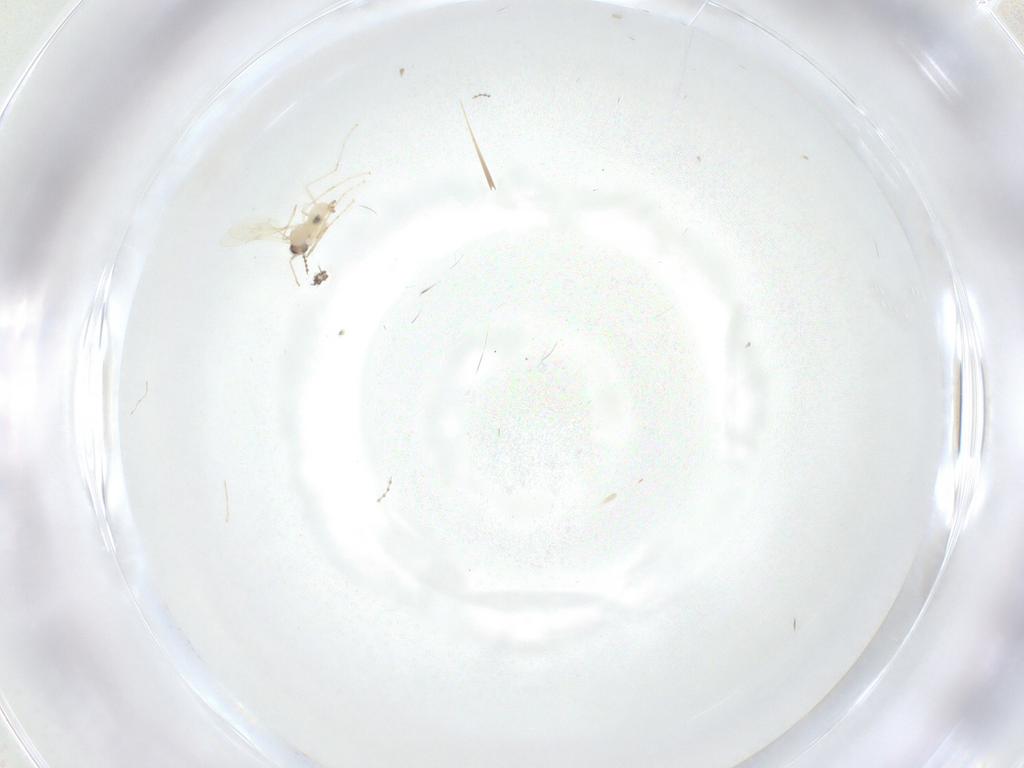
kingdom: Animalia
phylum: Arthropoda
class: Insecta
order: Diptera
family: Cecidomyiidae
